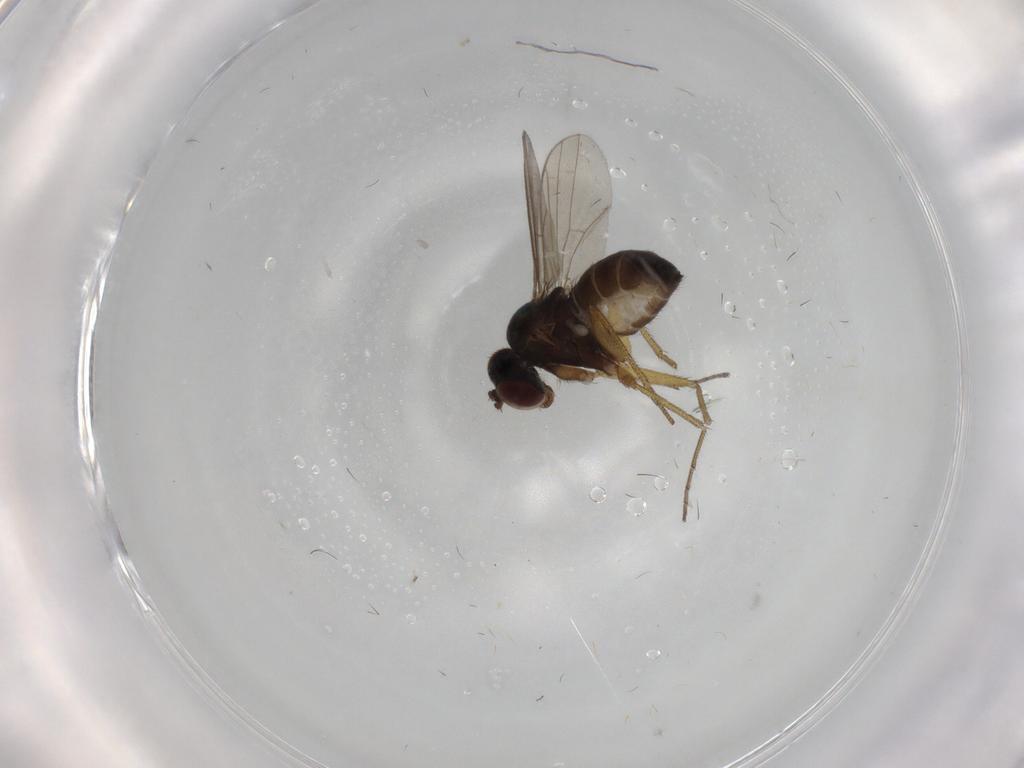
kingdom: Animalia
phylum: Arthropoda
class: Insecta
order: Diptera
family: Dolichopodidae
